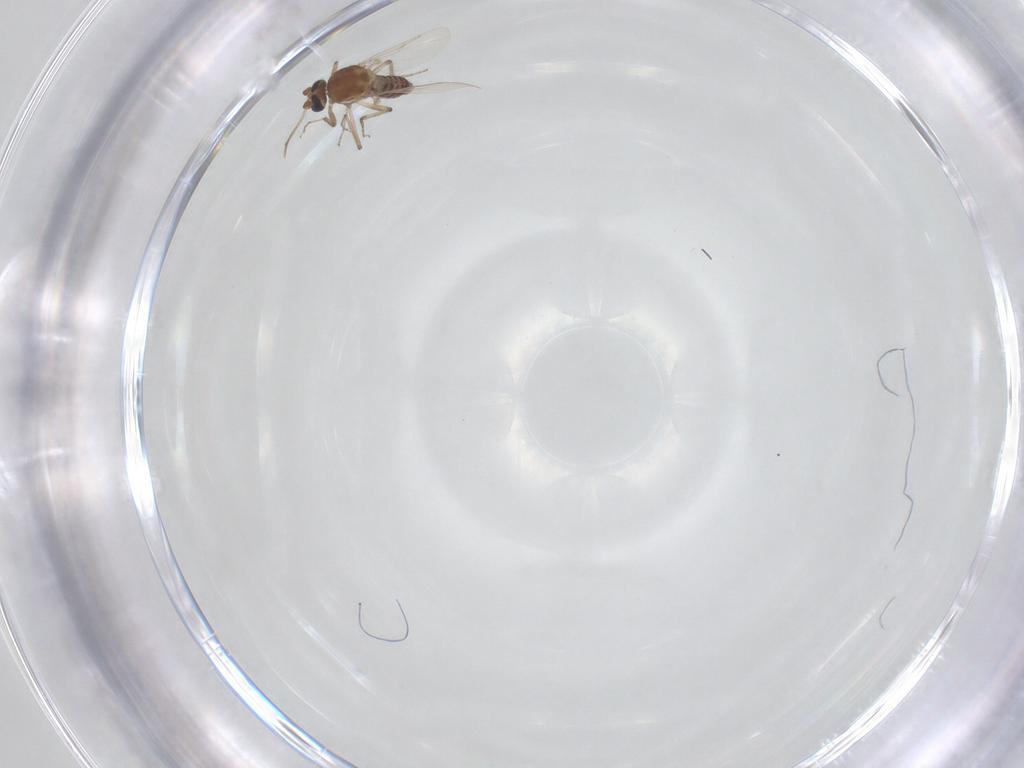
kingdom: Animalia
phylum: Arthropoda
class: Insecta
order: Diptera
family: Ceratopogonidae
